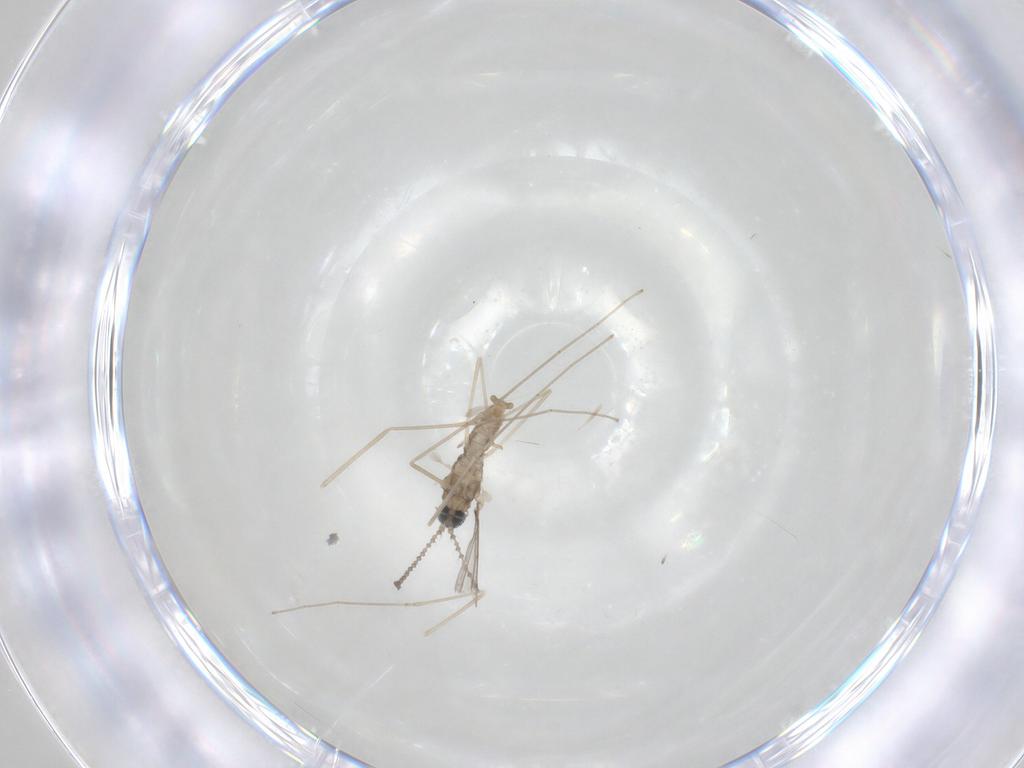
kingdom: Animalia
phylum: Arthropoda
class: Insecta
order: Diptera
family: Cecidomyiidae
